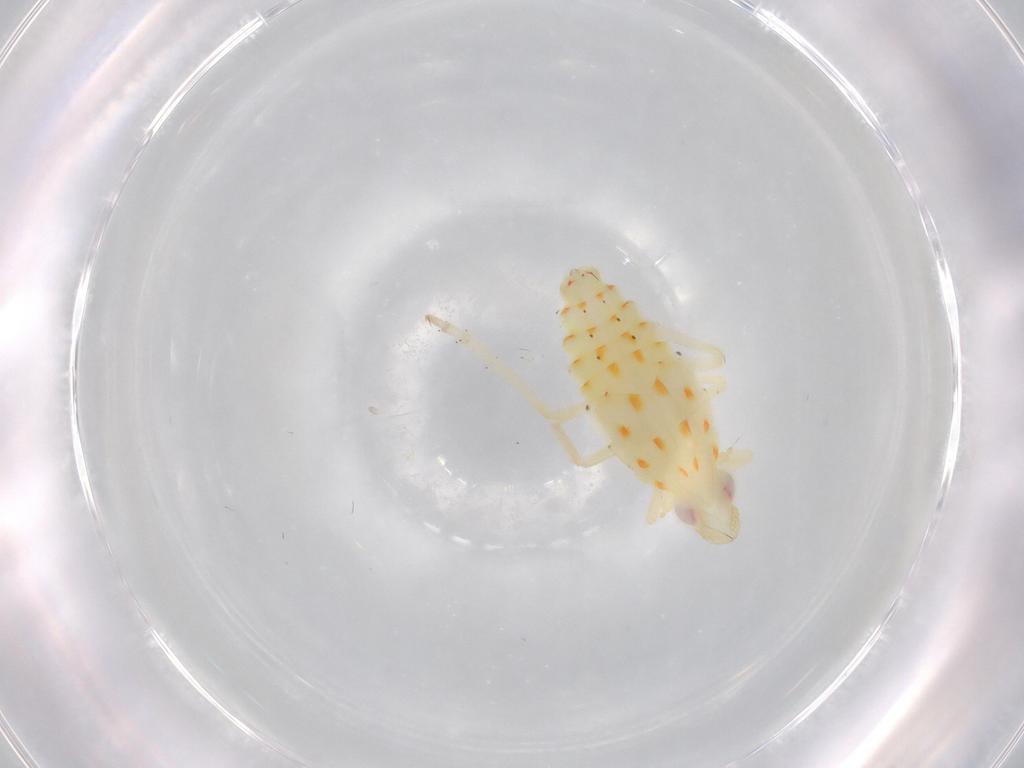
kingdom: Animalia
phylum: Arthropoda
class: Insecta
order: Hemiptera
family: Tropiduchidae
